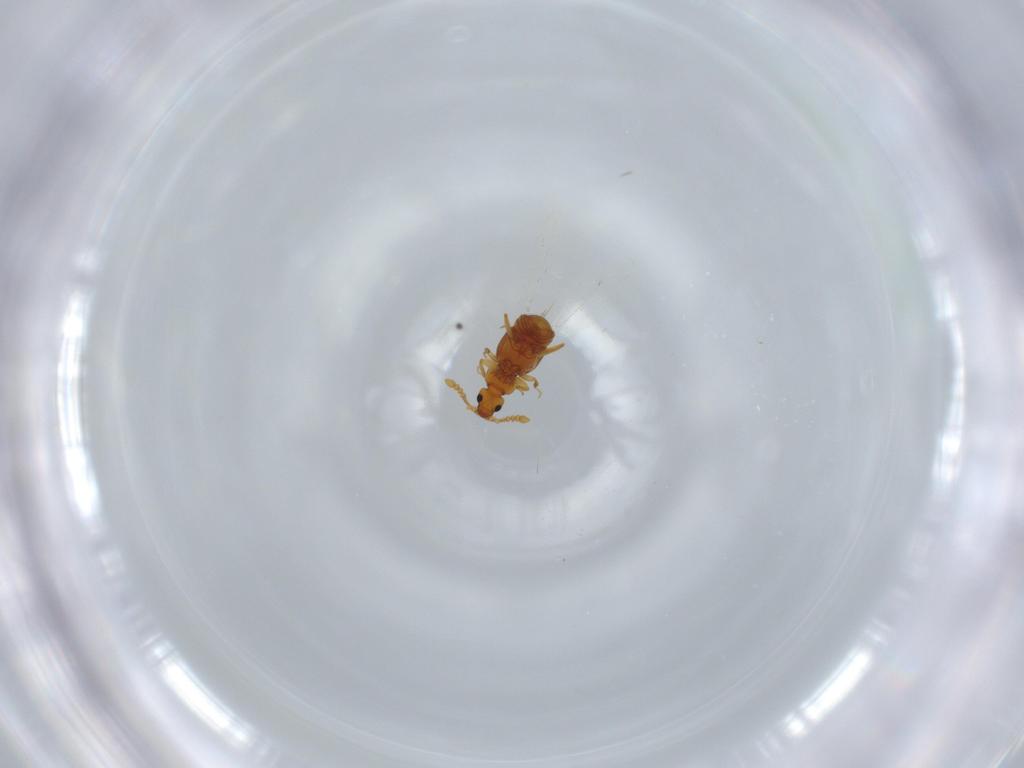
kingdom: Animalia
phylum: Arthropoda
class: Insecta
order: Coleoptera
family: Staphylinidae
